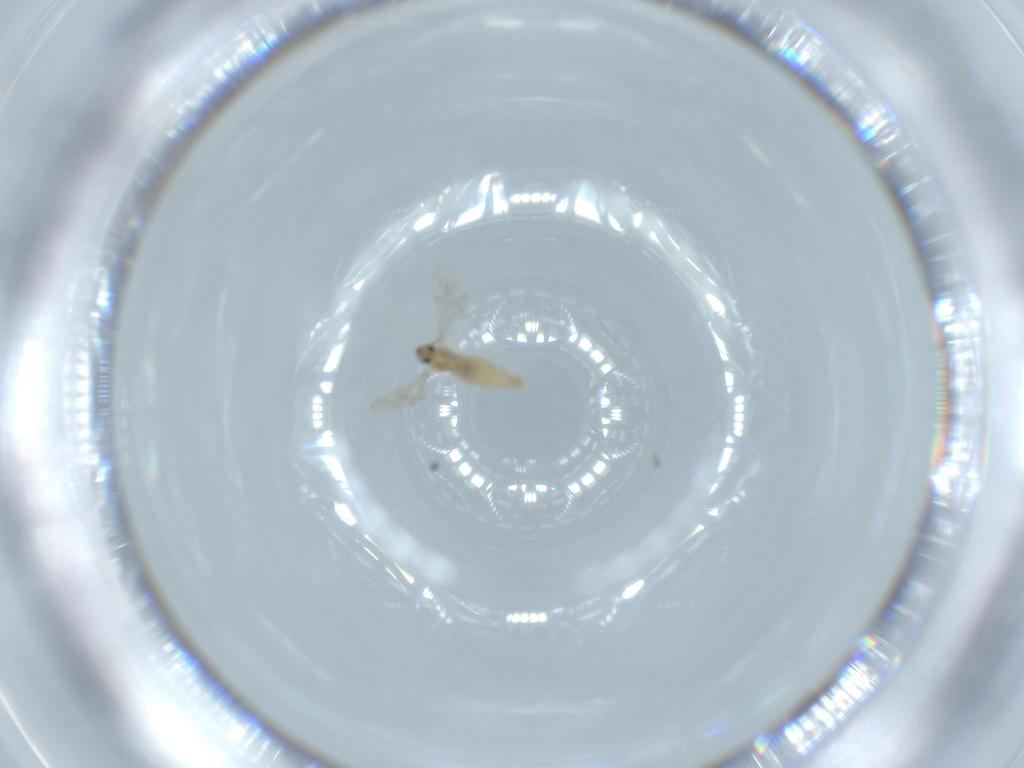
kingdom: Animalia
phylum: Arthropoda
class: Insecta
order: Diptera
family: Cecidomyiidae
